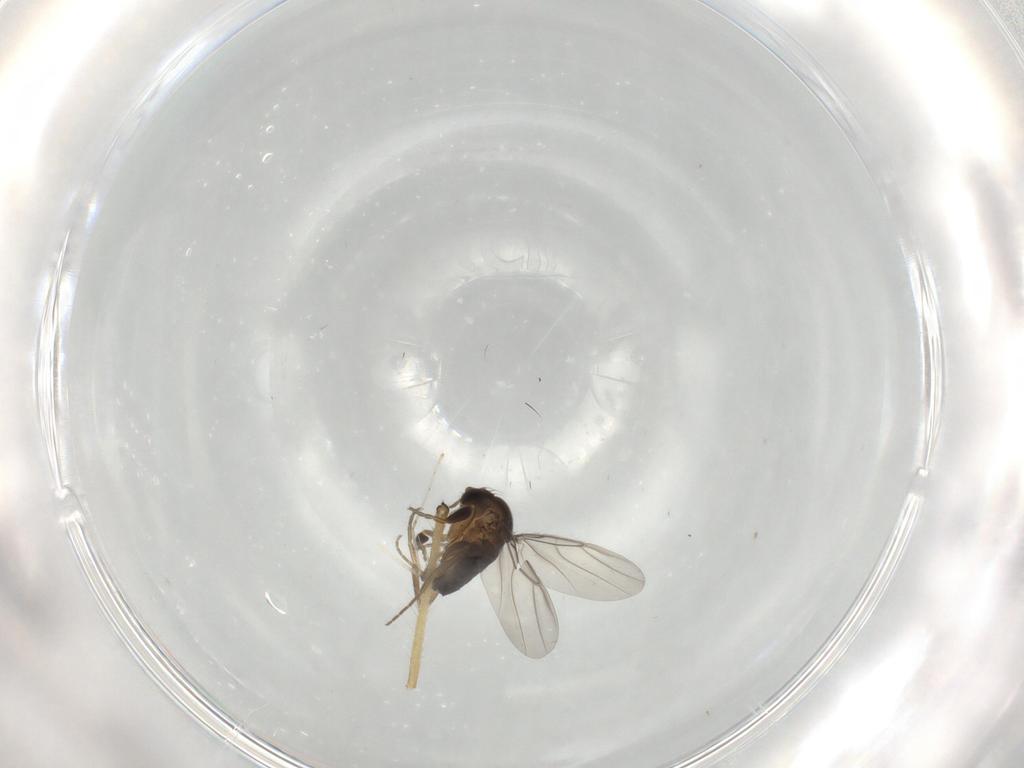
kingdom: Animalia
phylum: Arthropoda
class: Insecta
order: Diptera
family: Phoridae
